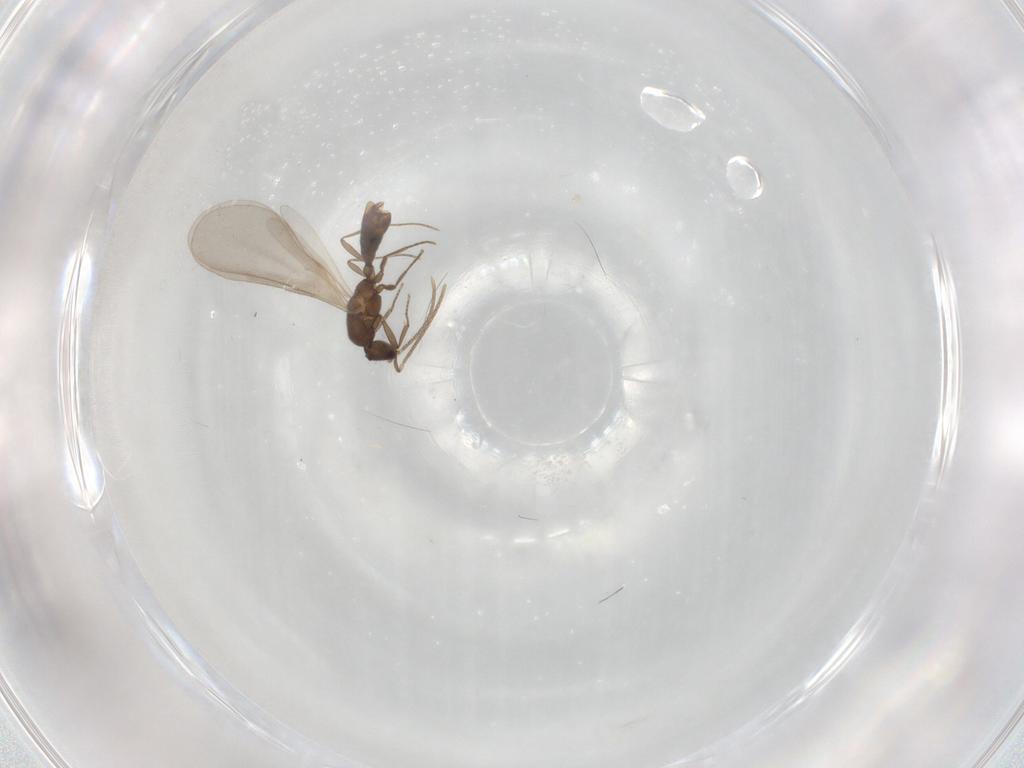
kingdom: Animalia
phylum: Arthropoda
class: Insecta
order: Hymenoptera
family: Formicidae
